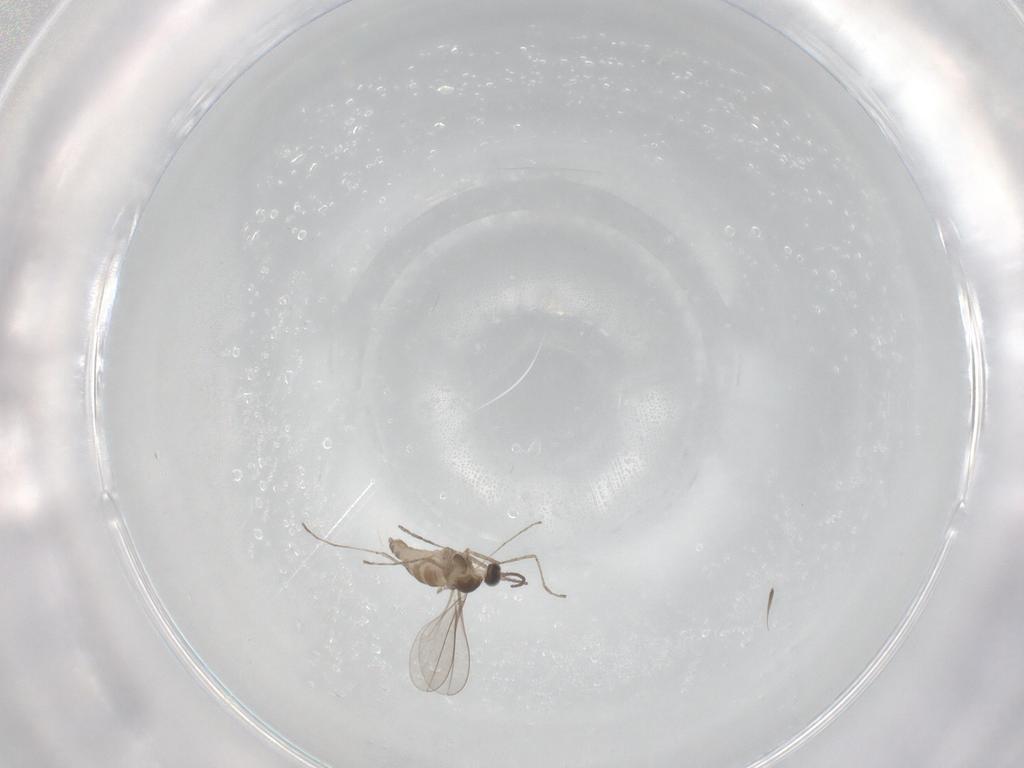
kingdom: Animalia
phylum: Arthropoda
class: Insecta
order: Diptera
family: Cecidomyiidae
